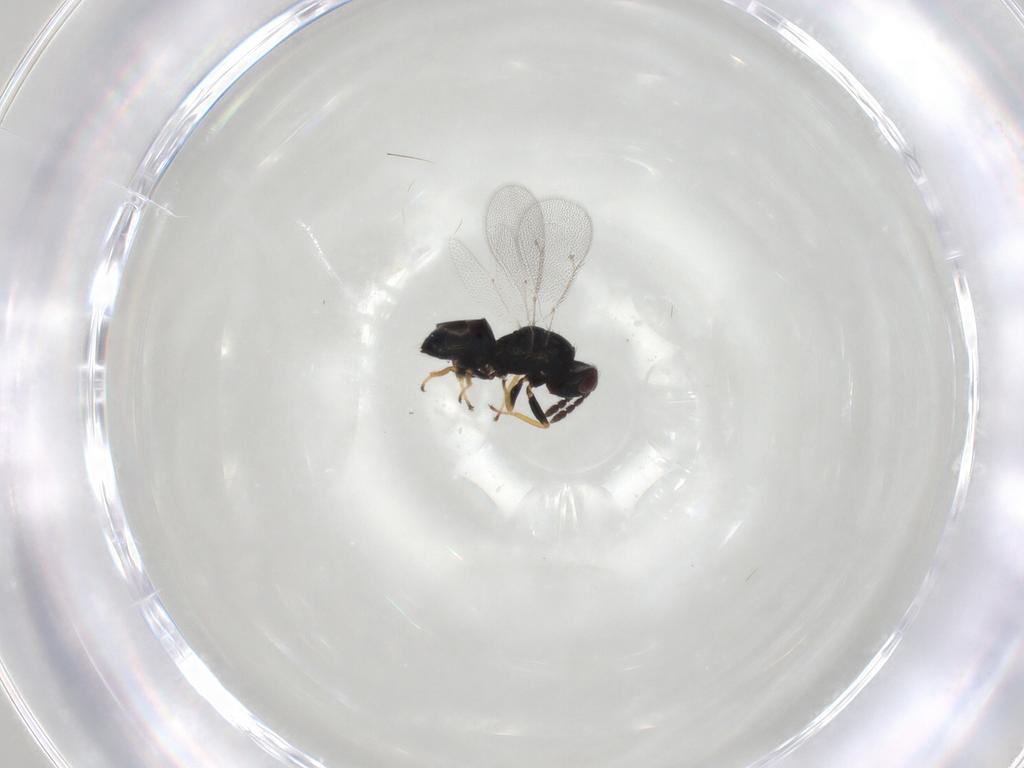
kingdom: Animalia
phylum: Arthropoda
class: Insecta
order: Hymenoptera
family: Eulophidae
